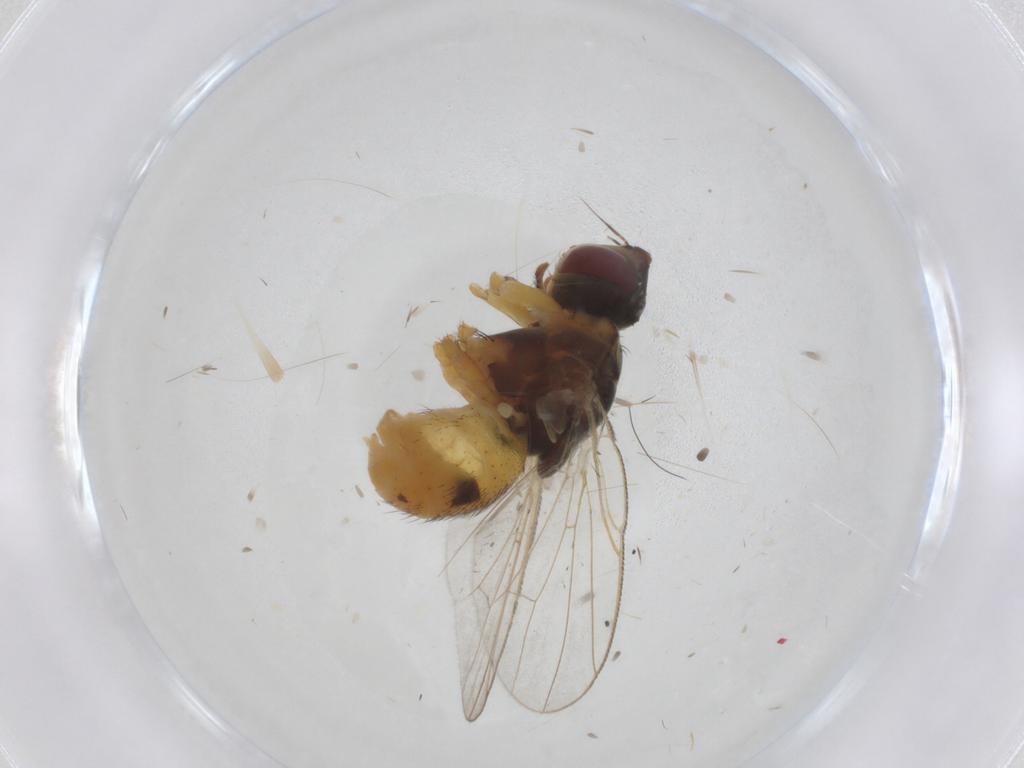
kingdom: Animalia
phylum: Arthropoda
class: Insecta
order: Diptera
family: Muscidae
